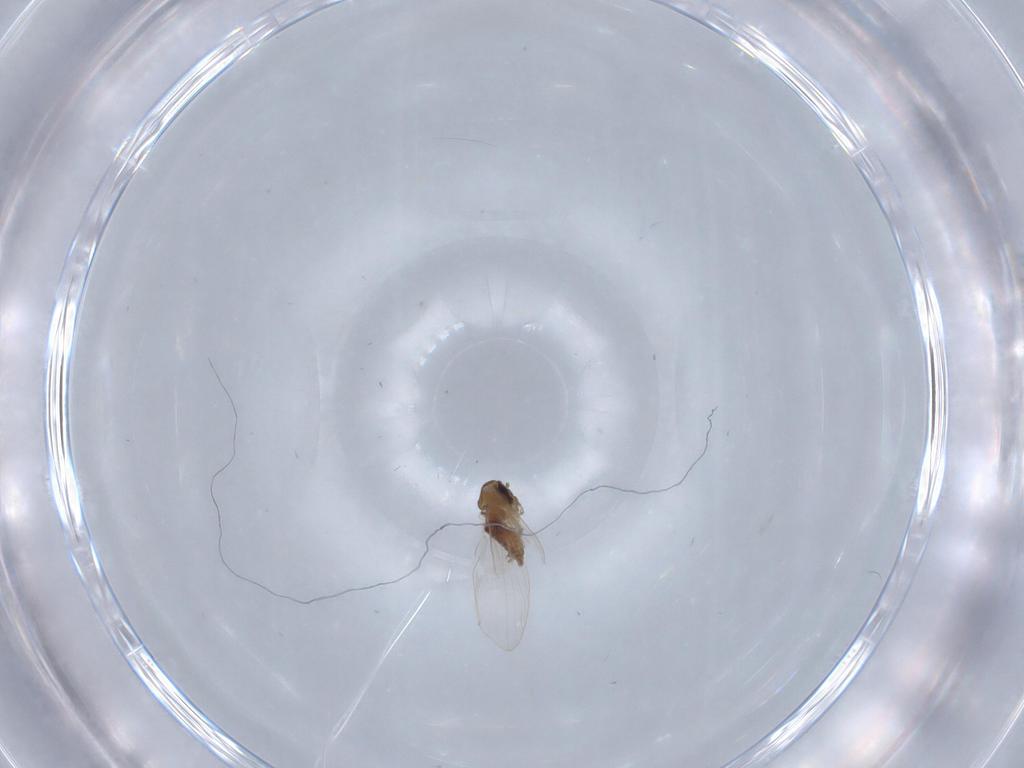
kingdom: Animalia
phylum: Arthropoda
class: Insecta
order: Diptera
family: Psychodidae
